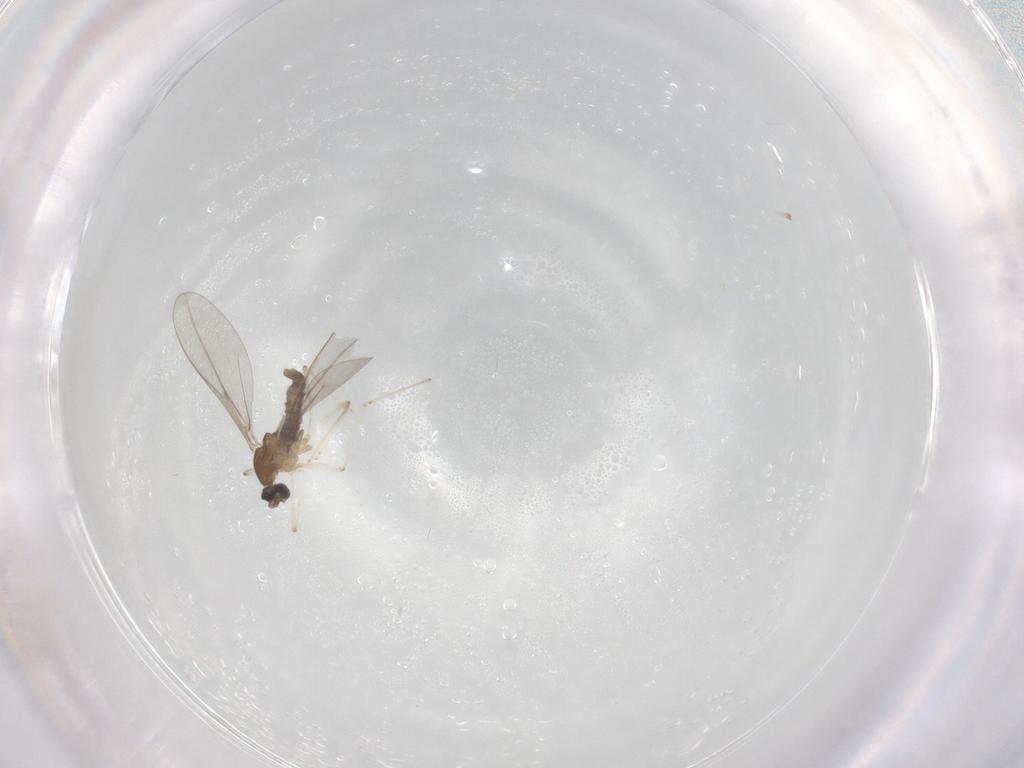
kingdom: Animalia
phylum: Arthropoda
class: Insecta
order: Diptera
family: Cecidomyiidae
